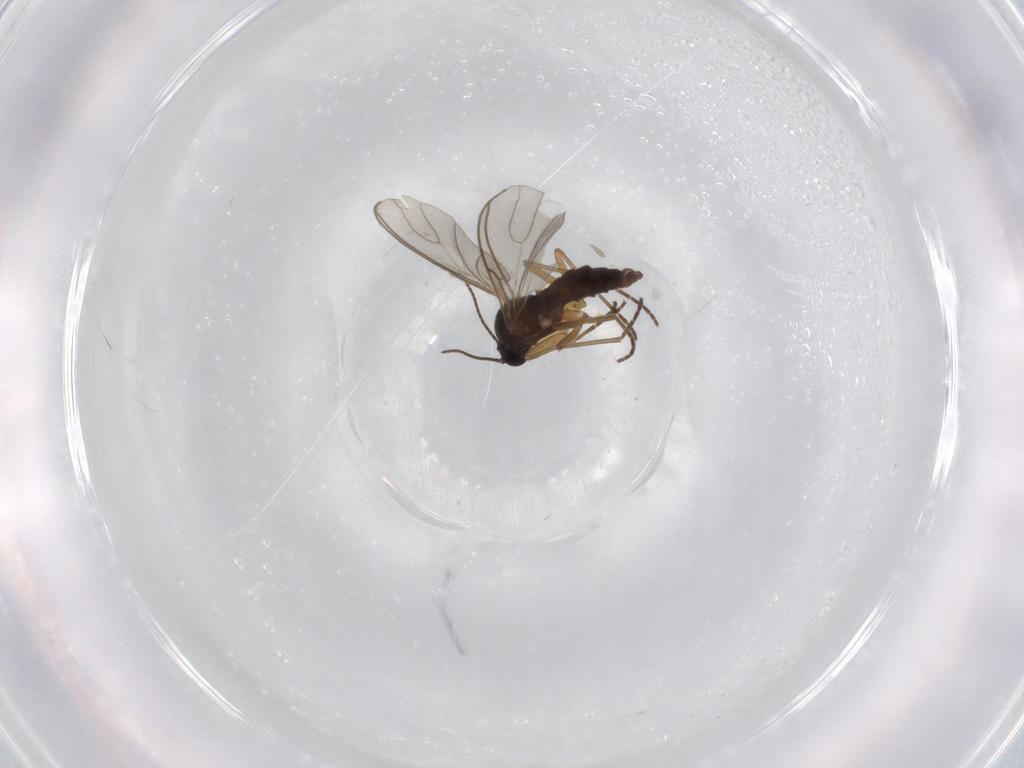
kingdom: Animalia
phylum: Arthropoda
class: Insecta
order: Diptera
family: Sciaridae
